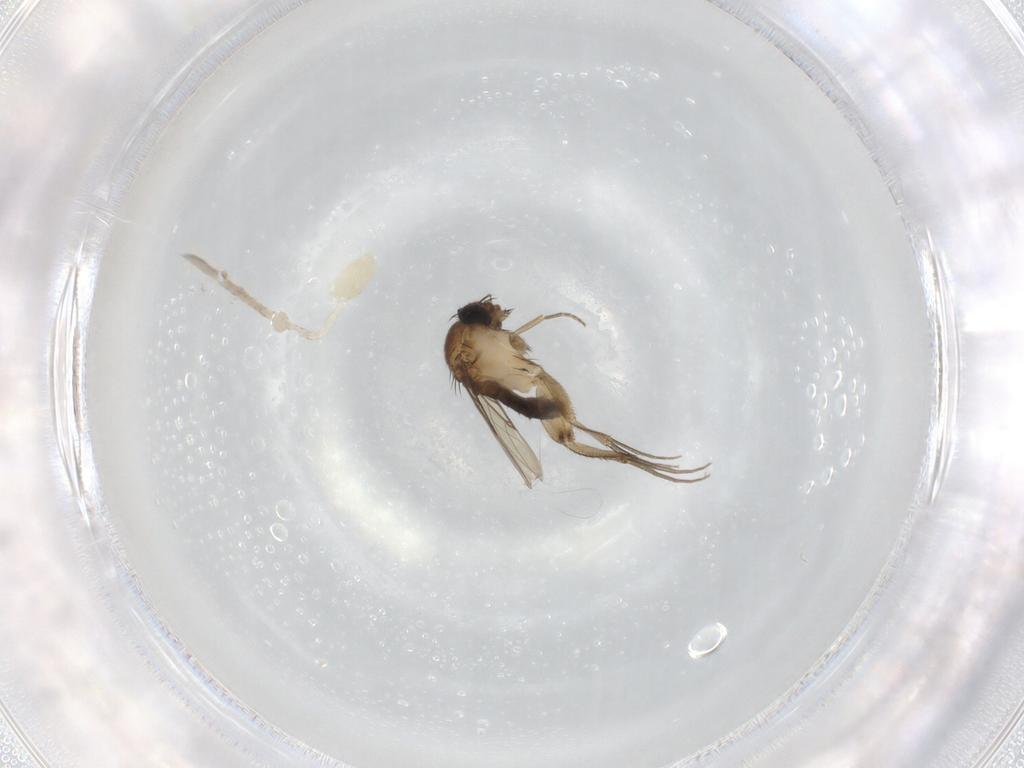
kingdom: Animalia
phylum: Arthropoda
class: Insecta
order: Diptera
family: Phoridae
